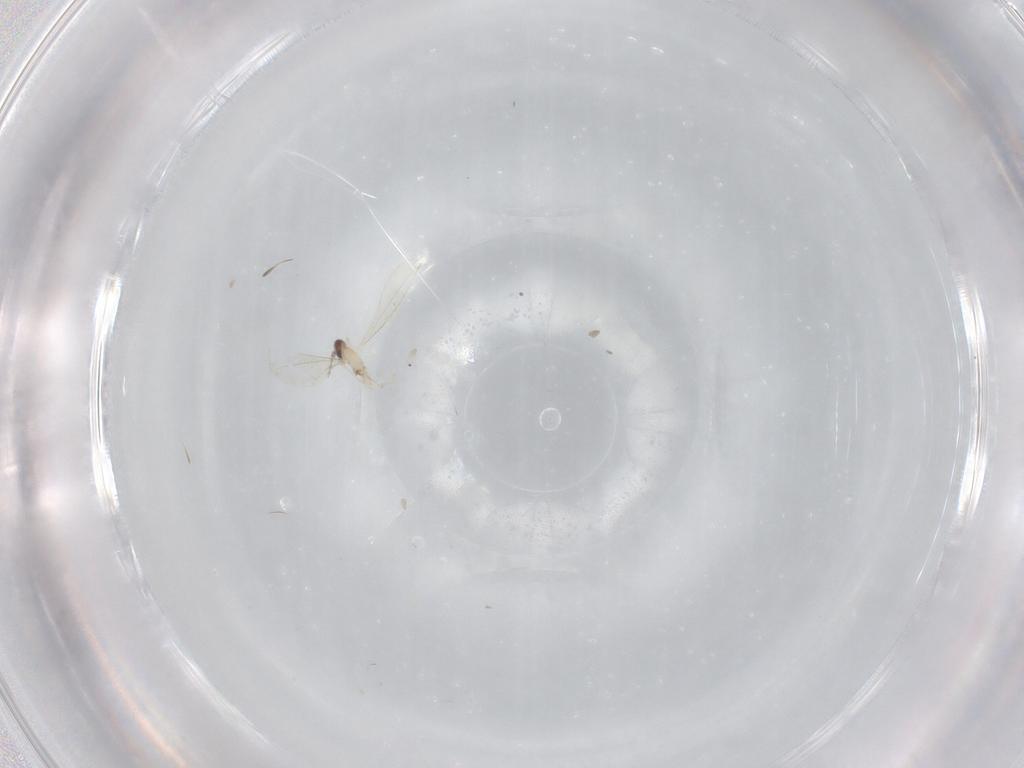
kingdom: Animalia
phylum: Arthropoda
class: Insecta
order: Diptera
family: Cecidomyiidae
